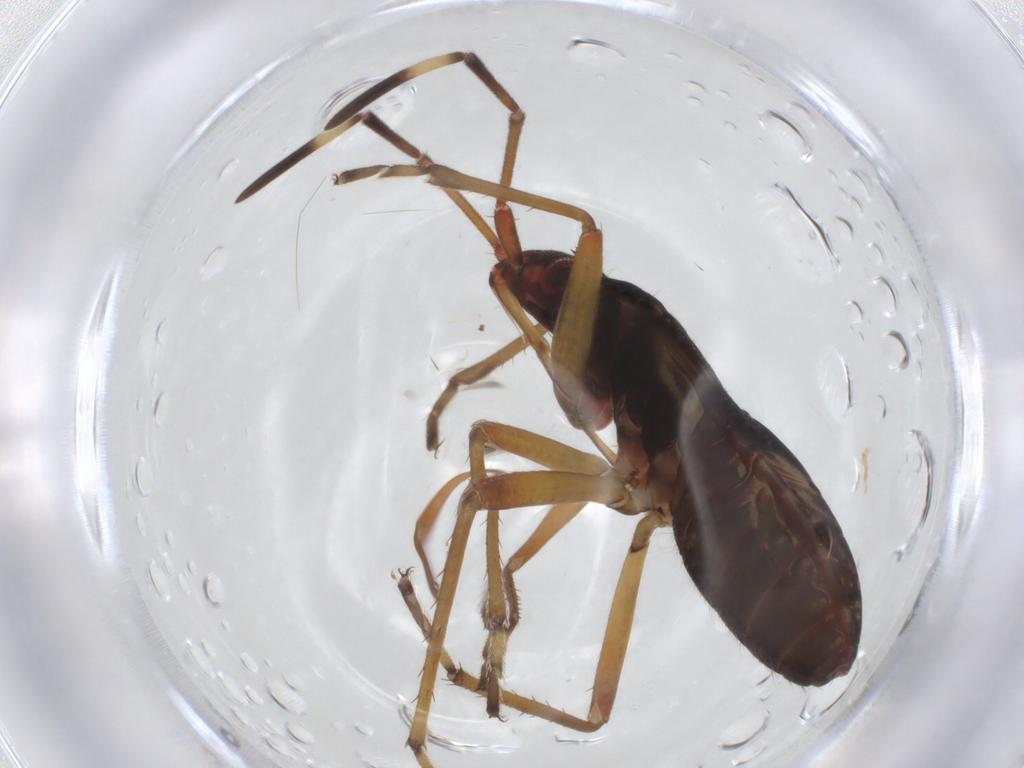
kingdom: Animalia
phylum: Arthropoda
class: Insecta
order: Hemiptera
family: Rhyparochromidae
